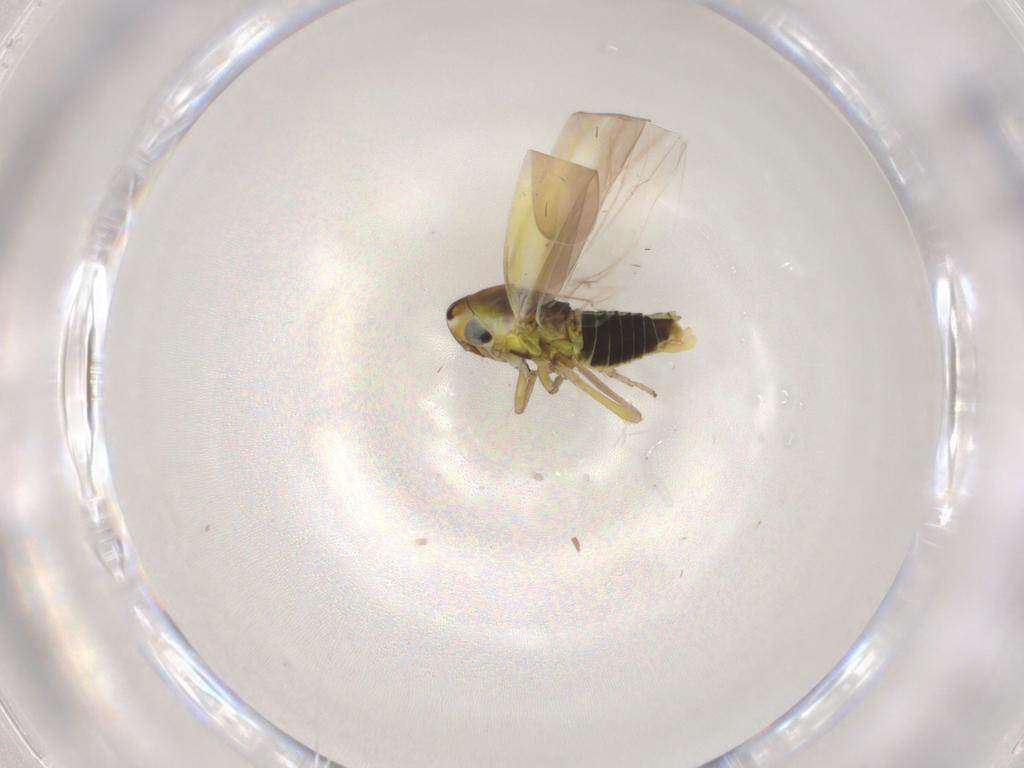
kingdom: Animalia
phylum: Arthropoda
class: Insecta
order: Hemiptera
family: Cicadellidae
